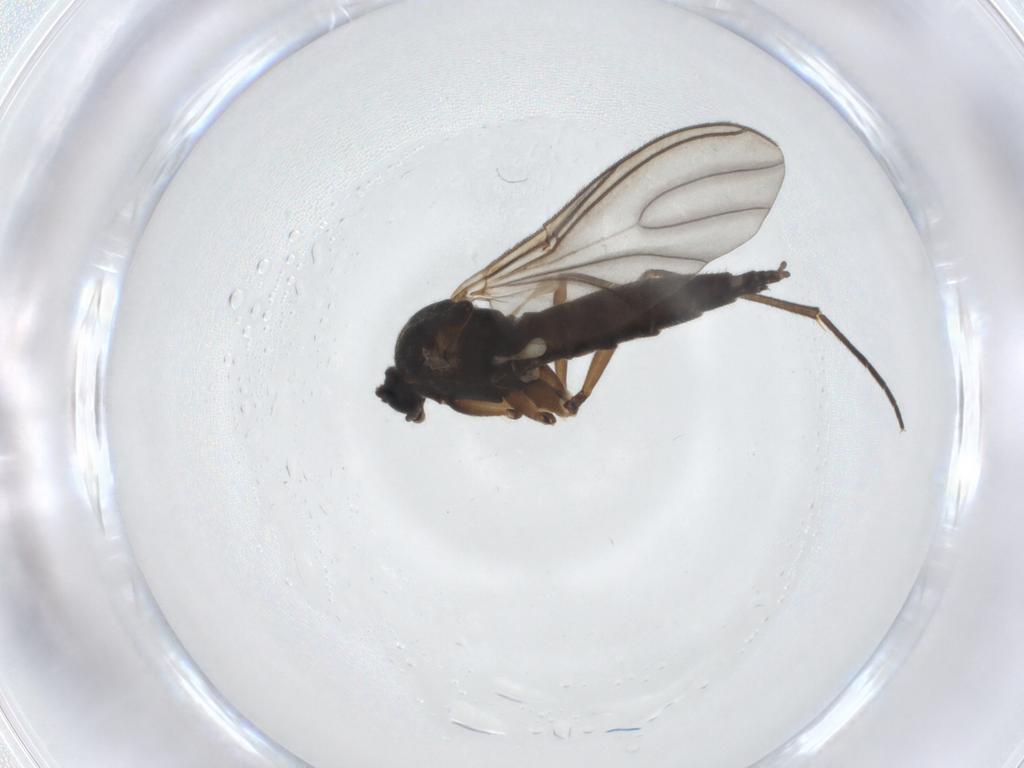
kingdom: Animalia
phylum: Arthropoda
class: Insecta
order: Diptera
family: Sciaridae
